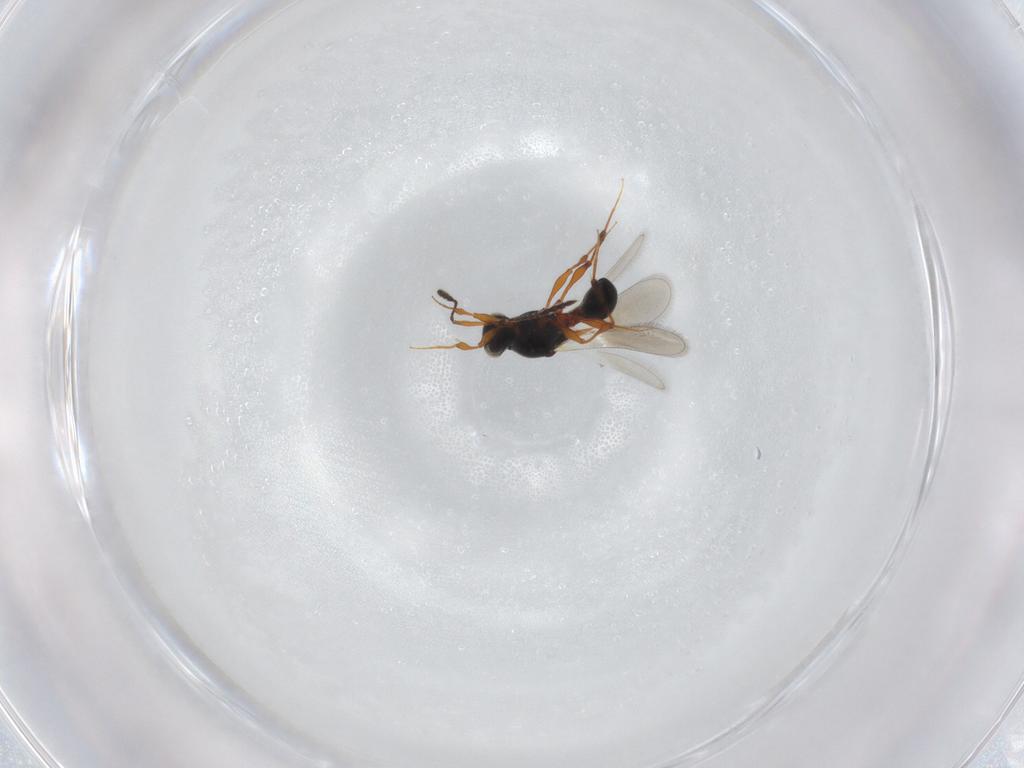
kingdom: Animalia
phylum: Arthropoda
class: Insecta
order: Hymenoptera
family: Platygastridae
